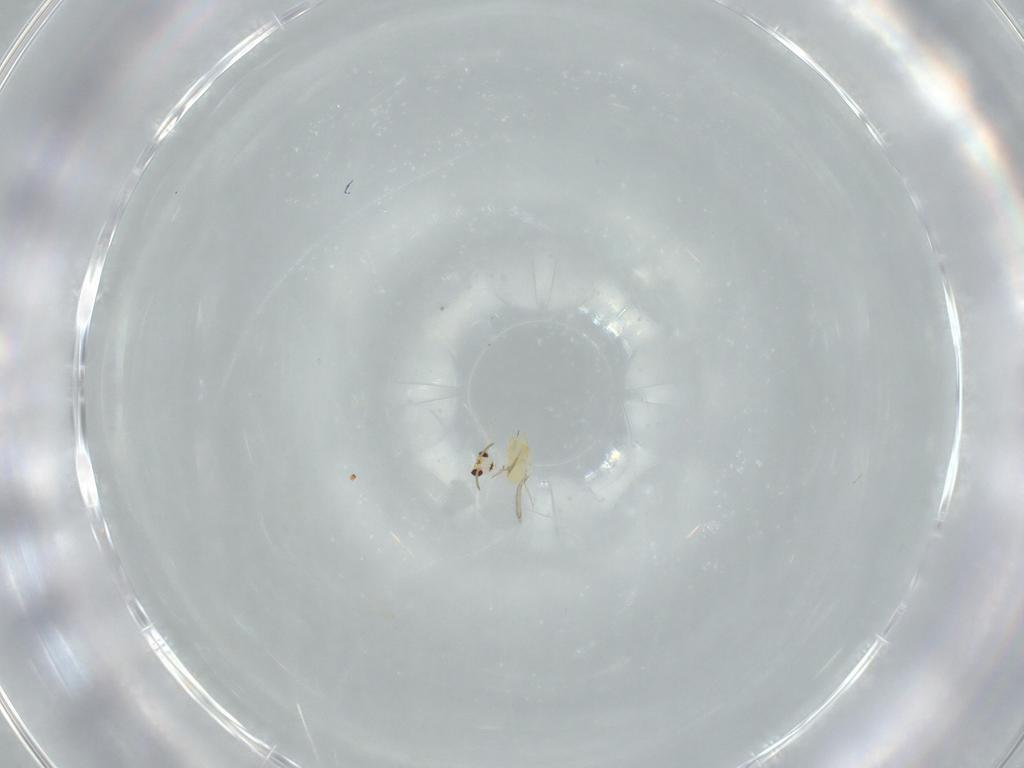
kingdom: Animalia
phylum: Arthropoda
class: Insecta
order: Hymenoptera
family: Aphelinidae
